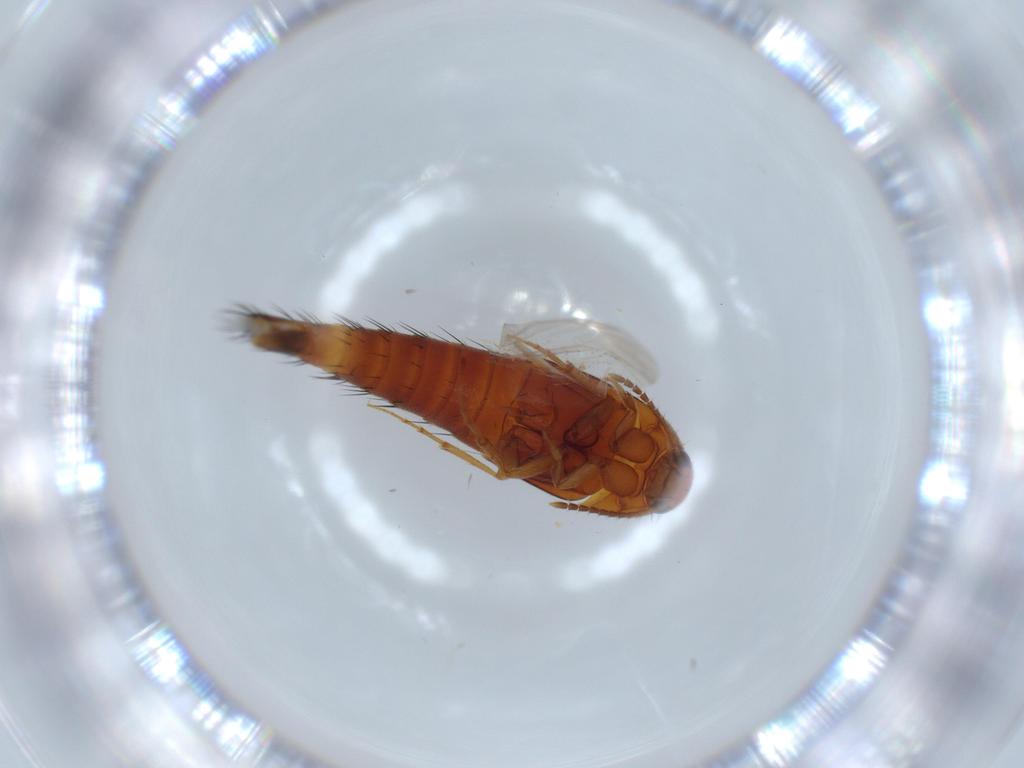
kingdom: Animalia
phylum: Arthropoda
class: Insecta
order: Coleoptera
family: Staphylinidae
